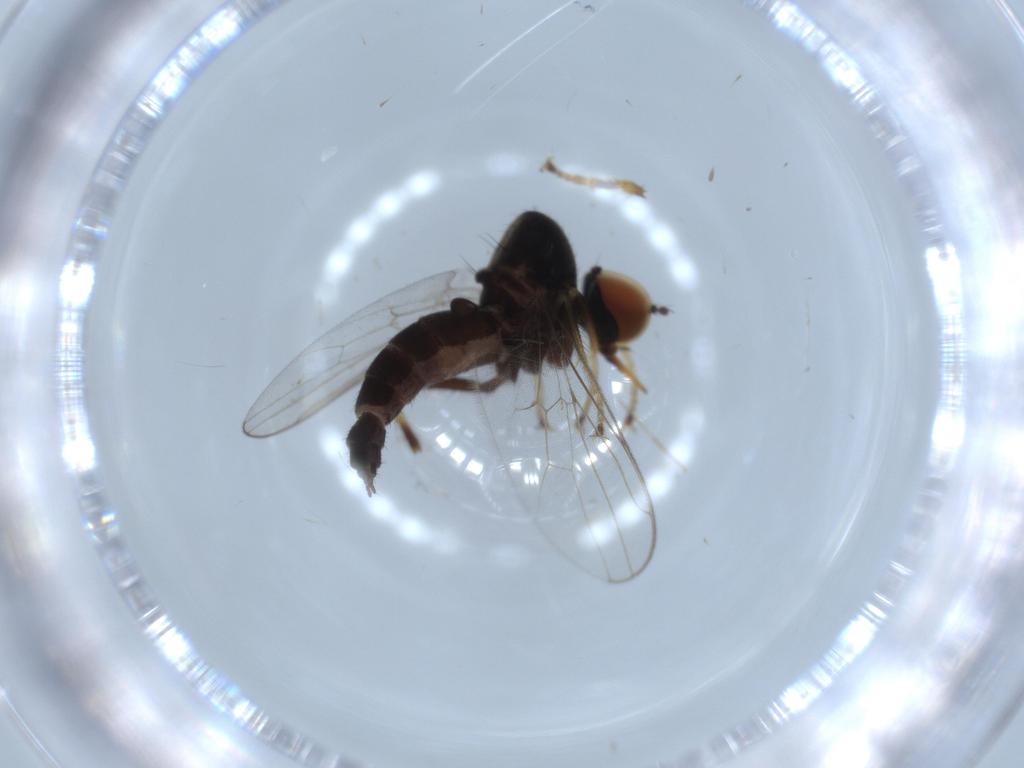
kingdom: Animalia
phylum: Arthropoda
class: Insecta
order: Diptera
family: Hybotidae
